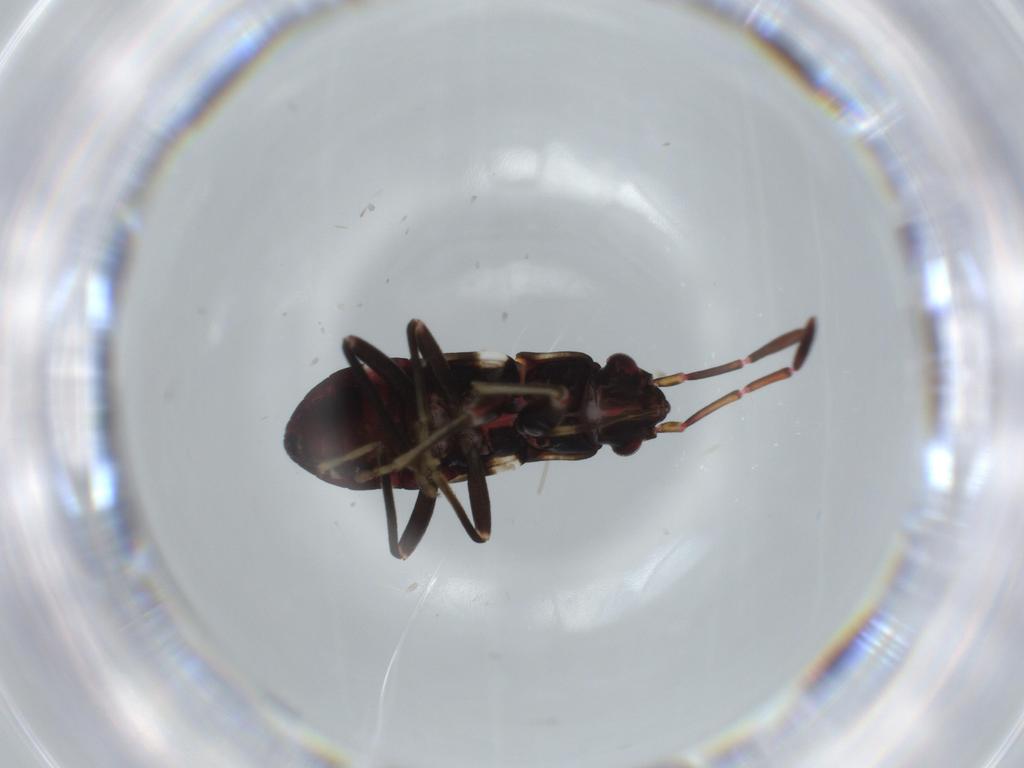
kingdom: Animalia
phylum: Arthropoda
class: Insecta
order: Hemiptera
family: Rhyparochromidae
